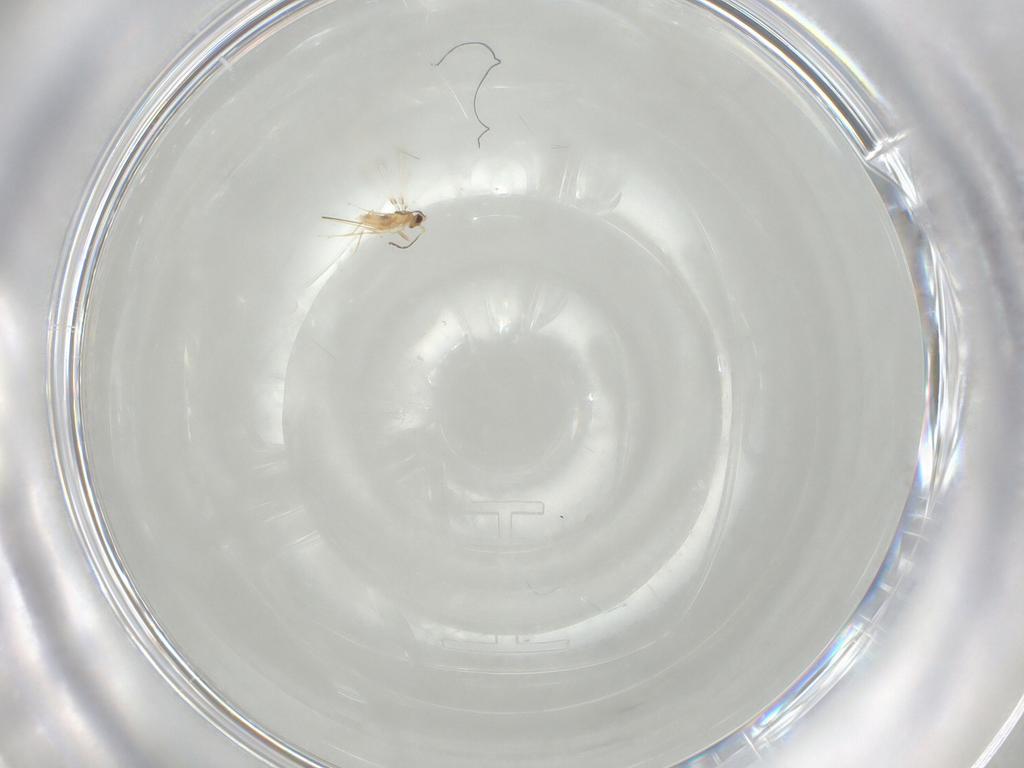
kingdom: Animalia
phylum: Arthropoda
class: Insecta
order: Hymenoptera
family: Mymaridae
